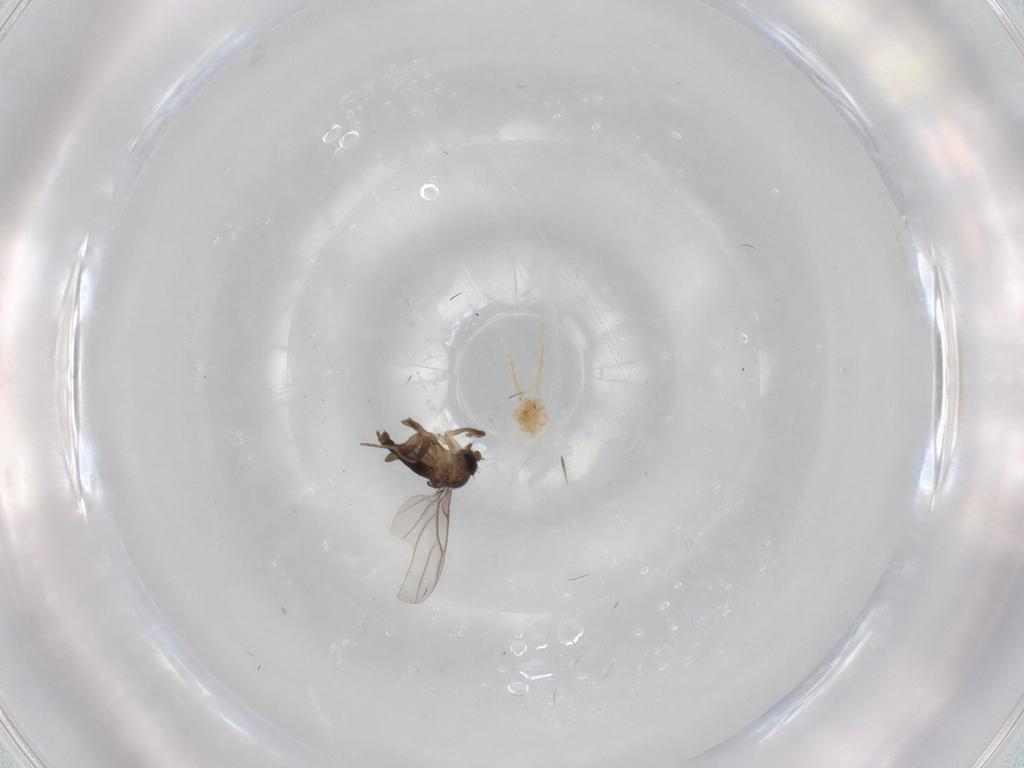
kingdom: Animalia
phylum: Arthropoda
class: Insecta
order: Diptera
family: Phoridae
